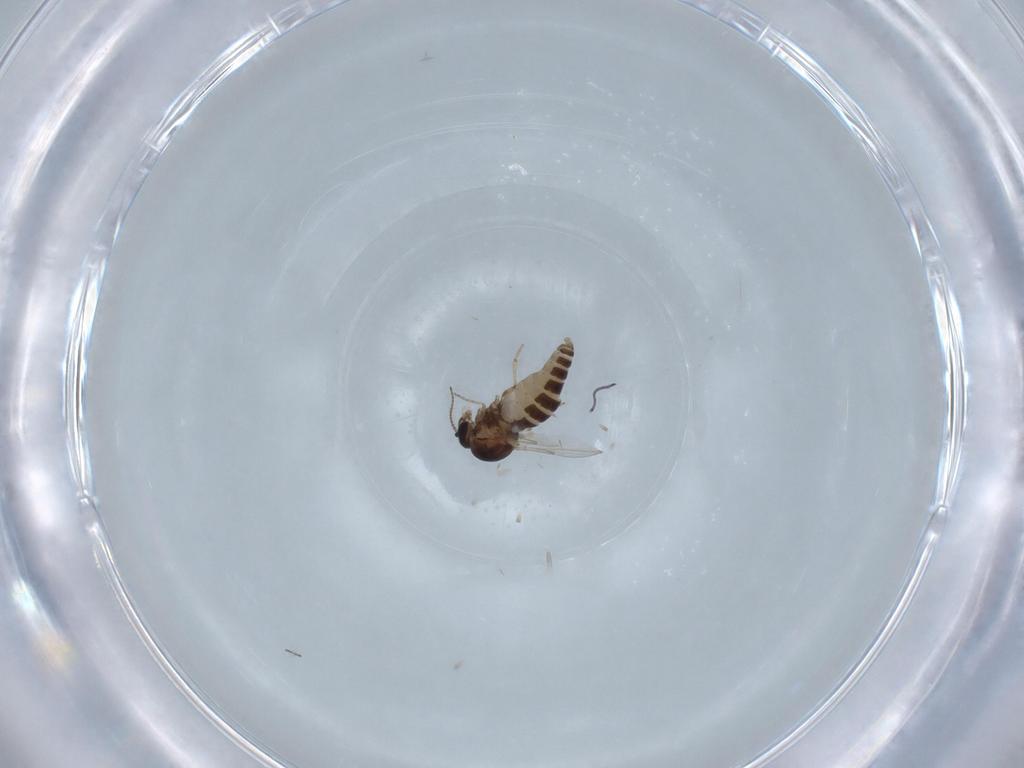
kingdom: Animalia
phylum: Arthropoda
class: Insecta
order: Diptera
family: Ceratopogonidae
